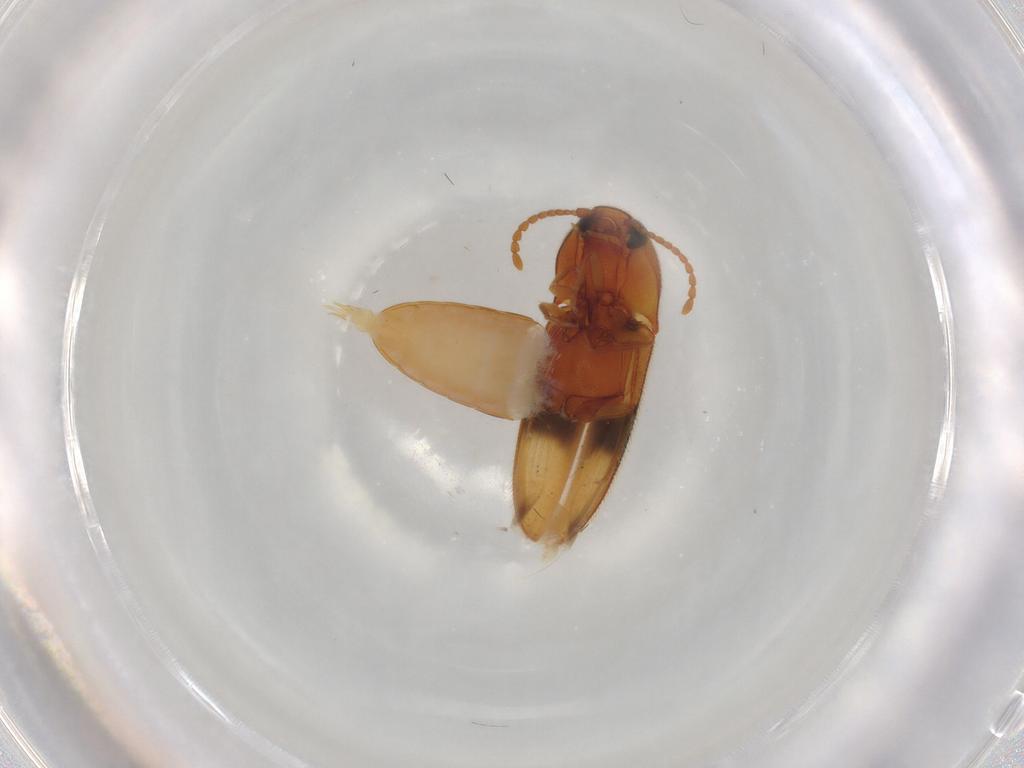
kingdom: Animalia
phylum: Arthropoda
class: Insecta
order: Coleoptera
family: Elateridae
